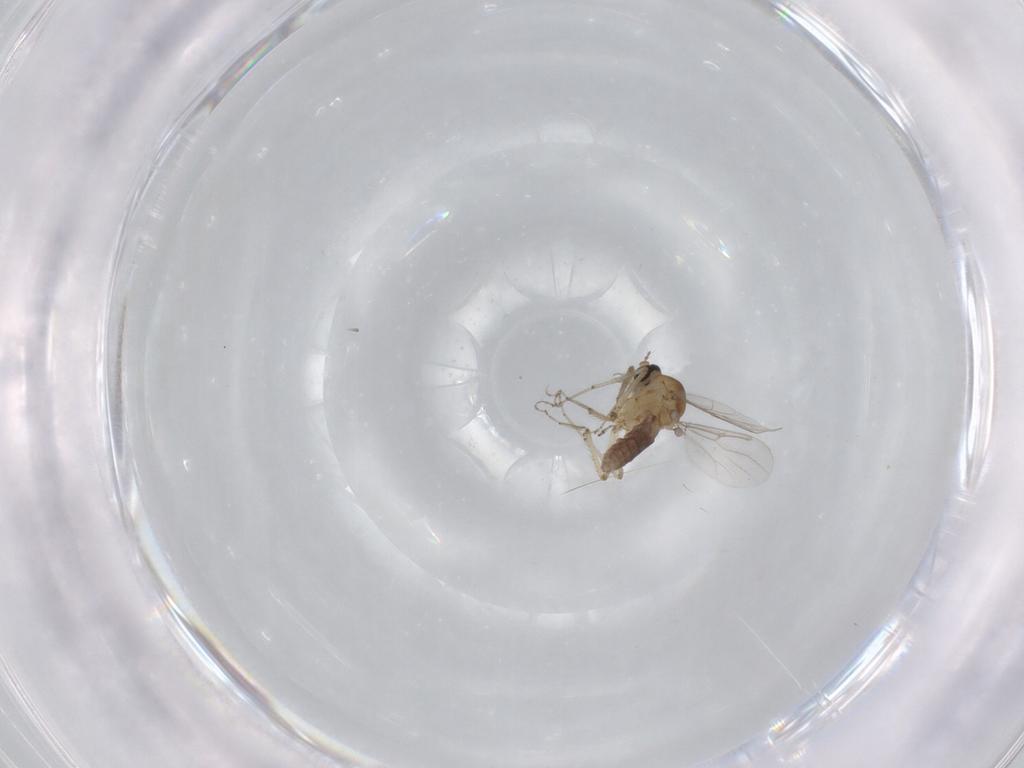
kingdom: Animalia
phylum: Arthropoda
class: Insecta
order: Diptera
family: Ceratopogonidae
